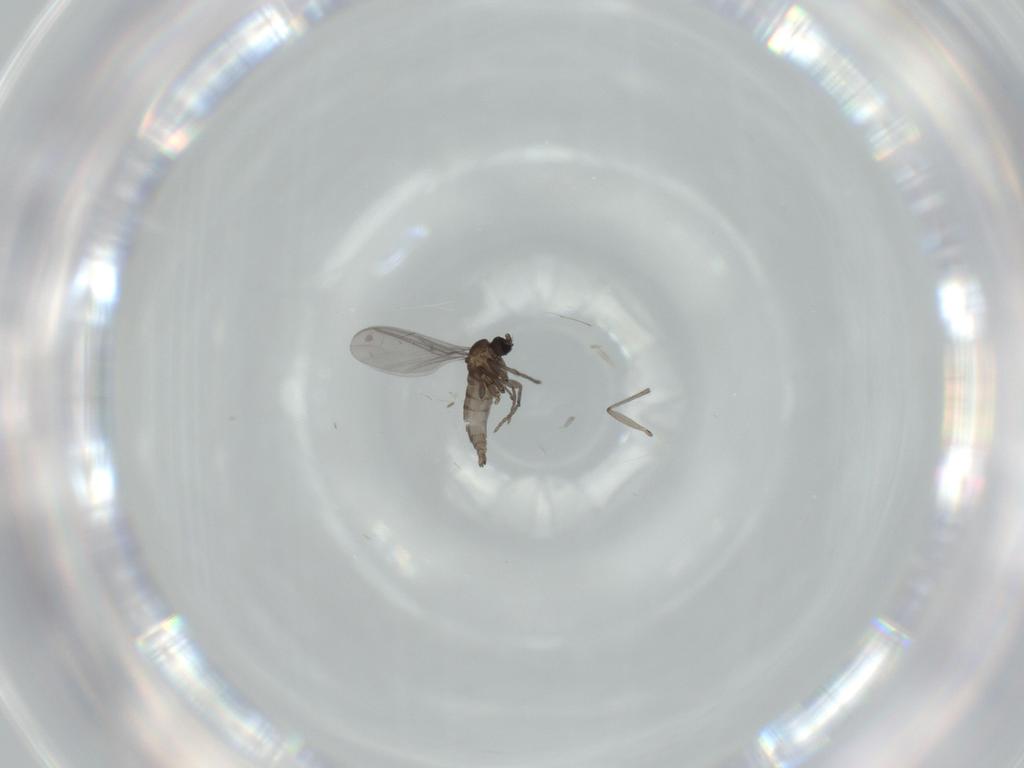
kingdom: Animalia
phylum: Arthropoda
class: Insecta
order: Diptera
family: Sciaridae
